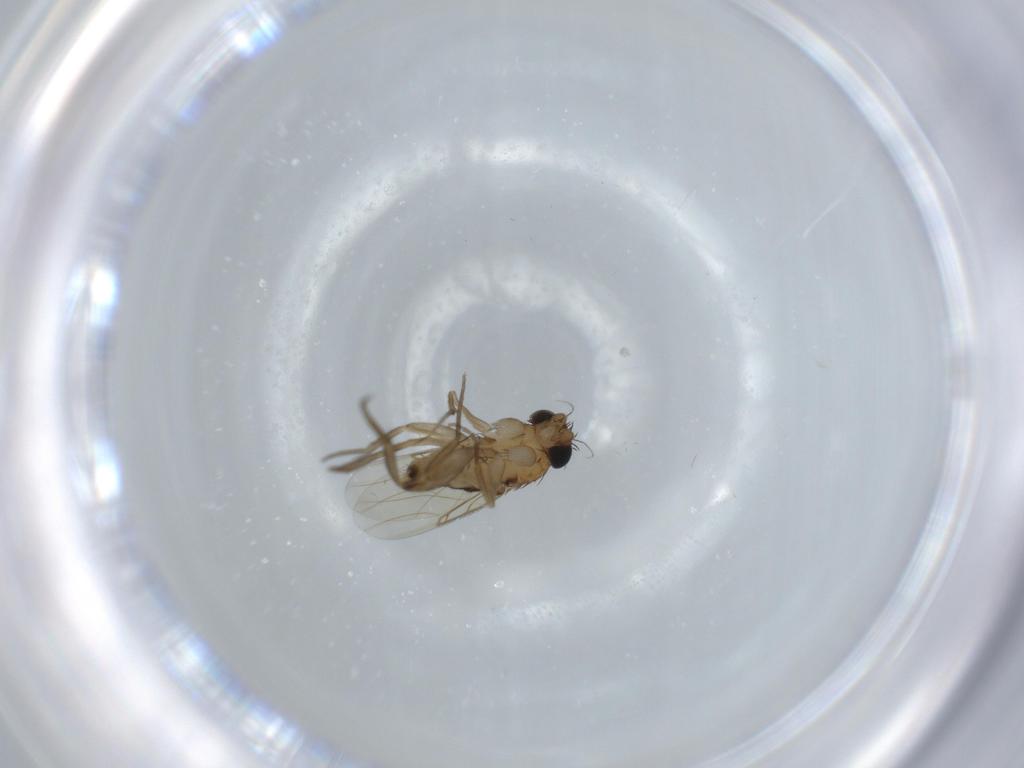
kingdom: Animalia
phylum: Arthropoda
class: Insecta
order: Diptera
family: Phoridae
